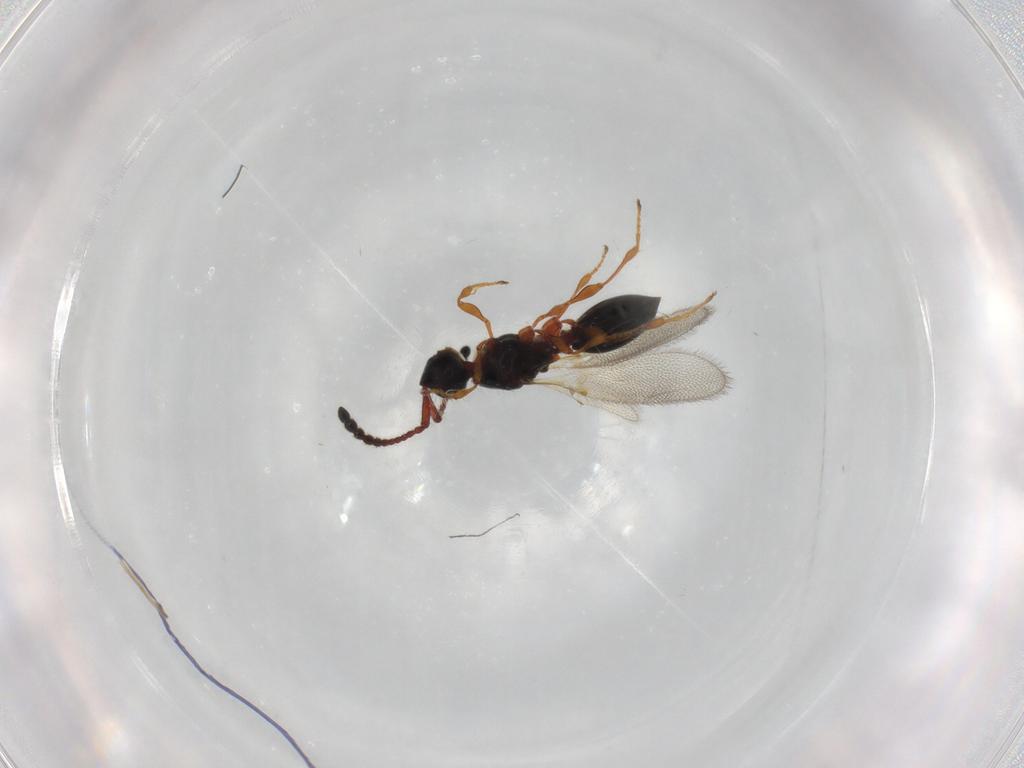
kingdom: Animalia
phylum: Arthropoda
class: Insecta
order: Hymenoptera
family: Diapriidae
